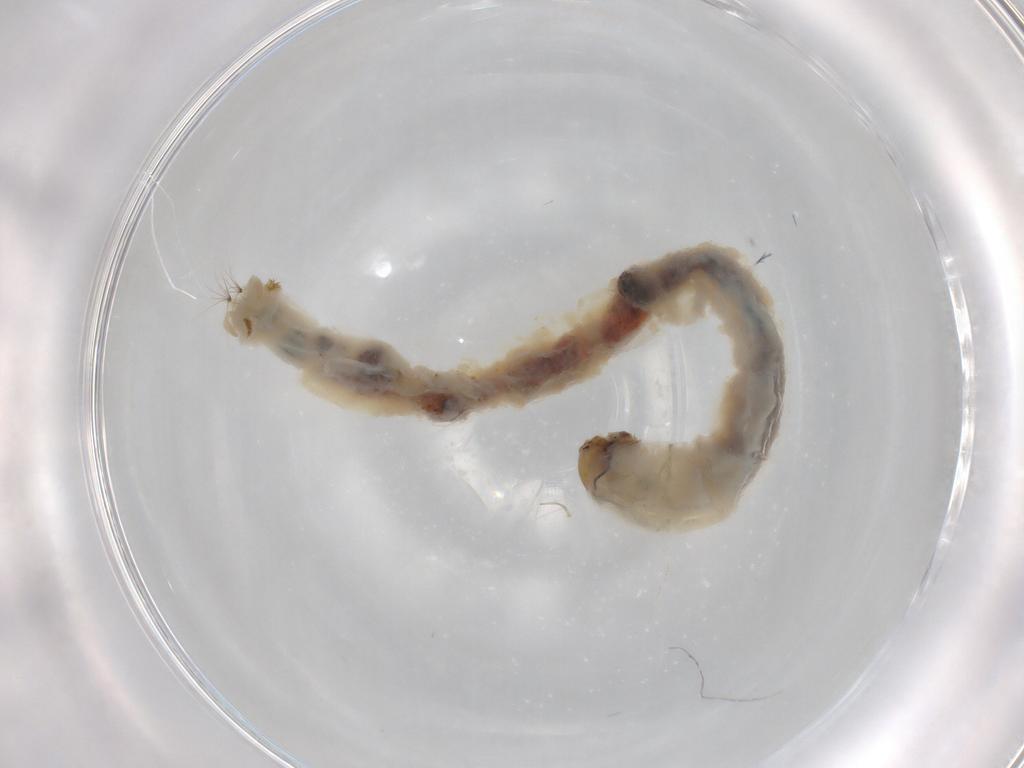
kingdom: Animalia
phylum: Arthropoda
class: Insecta
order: Diptera
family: Chironomidae
